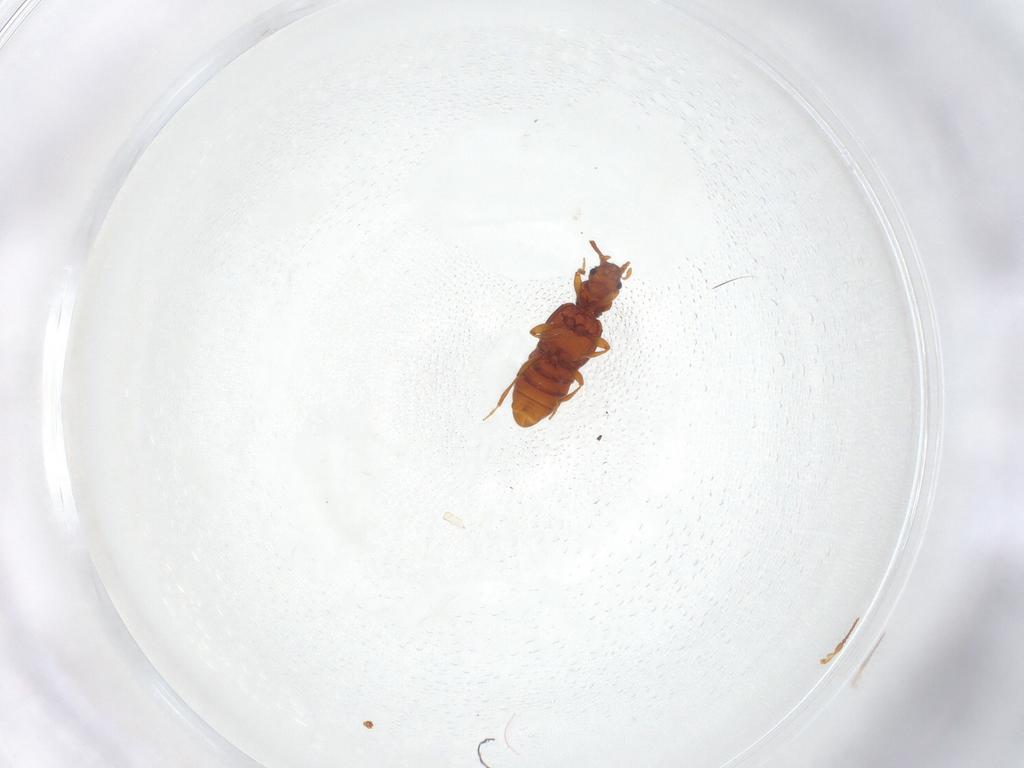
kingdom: Animalia
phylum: Arthropoda
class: Insecta
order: Coleoptera
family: Staphylinidae
